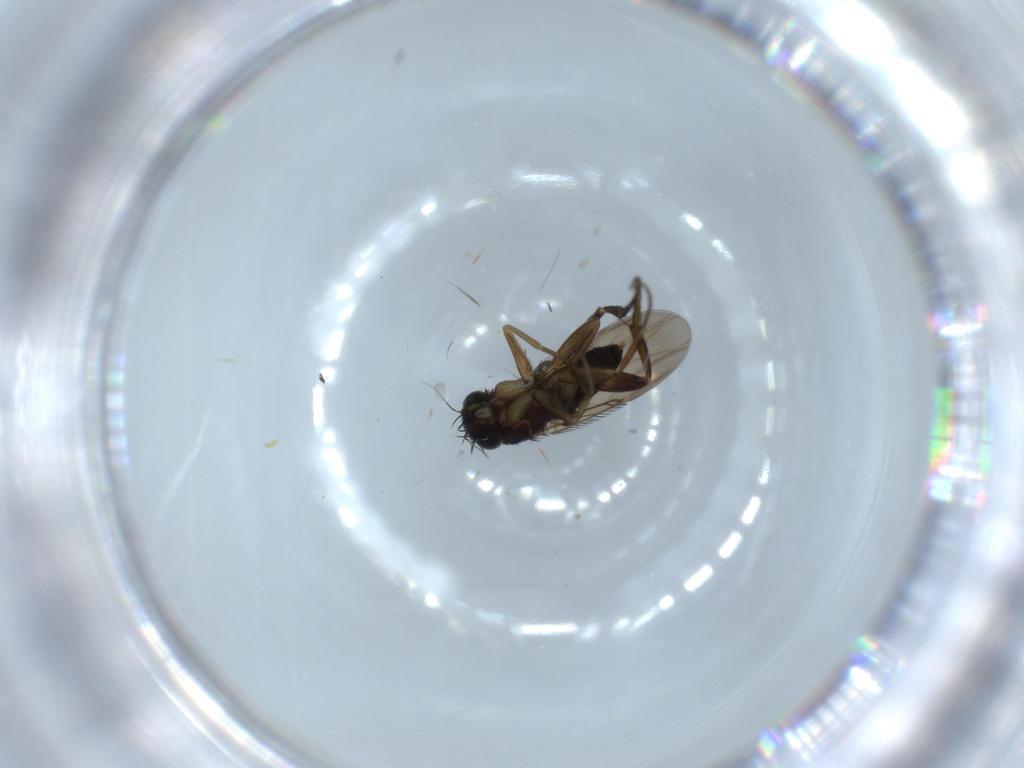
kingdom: Animalia
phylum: Arthropoda
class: Insecta
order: Diptera
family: Phoridae
